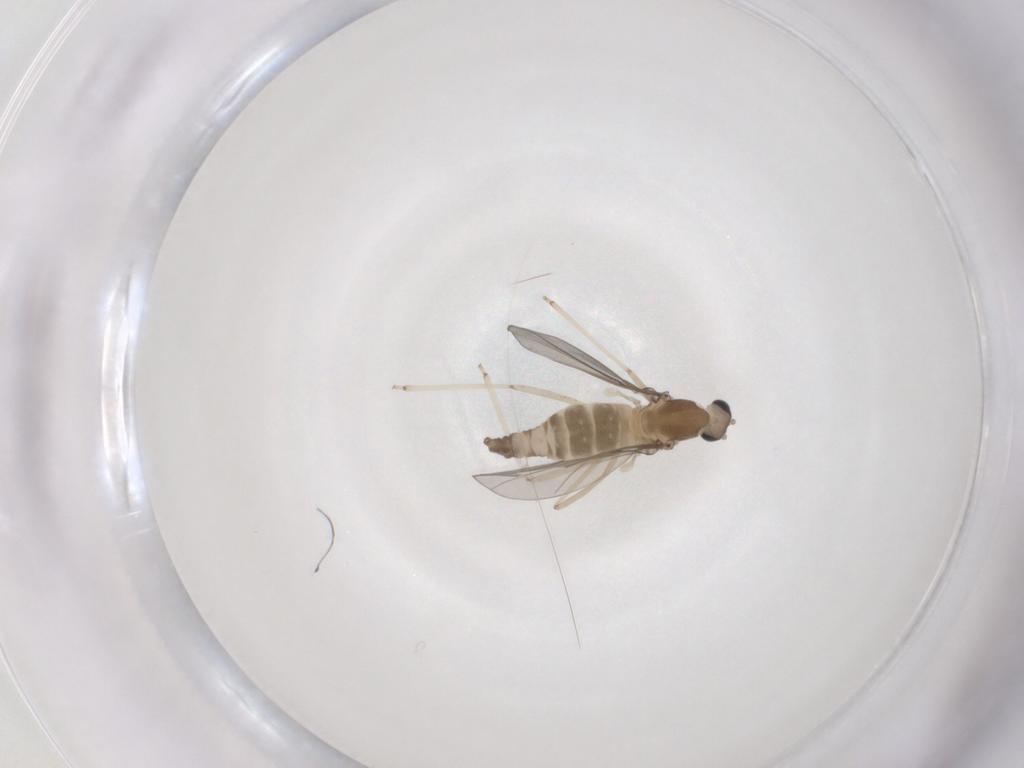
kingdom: Animalia
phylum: Arthropoda
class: Insecta
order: Diptera
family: Cecidomyiidae
